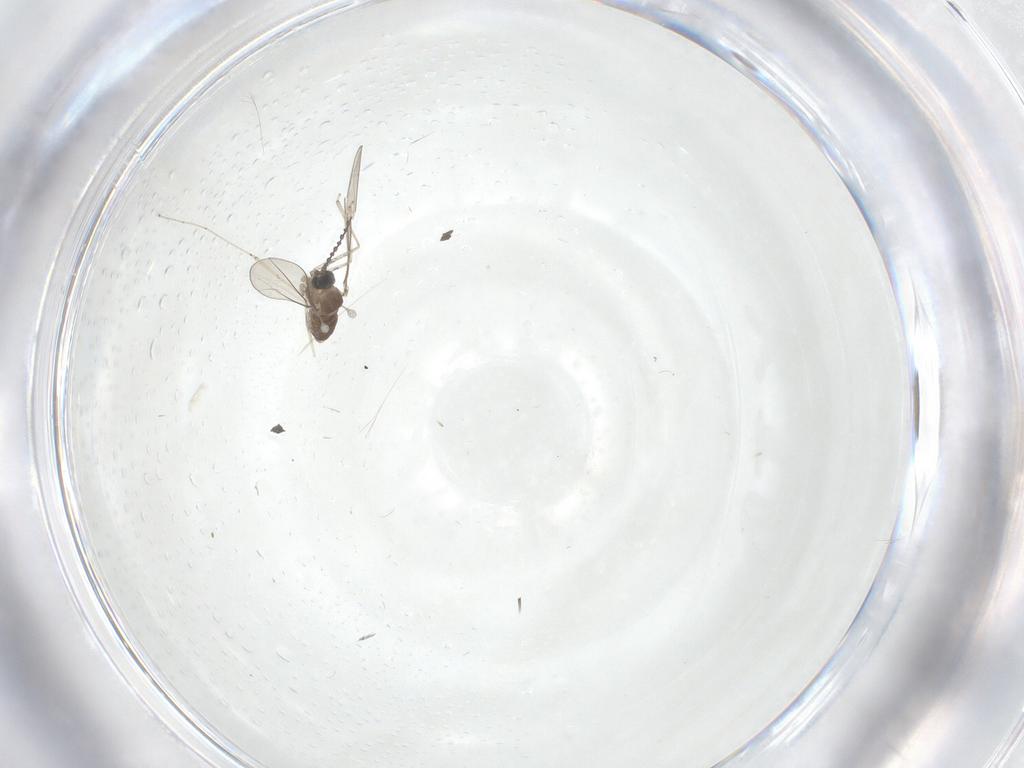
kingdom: Animalia
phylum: Arthropoda
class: Insecta
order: Diptera
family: Cecidomyiidae
